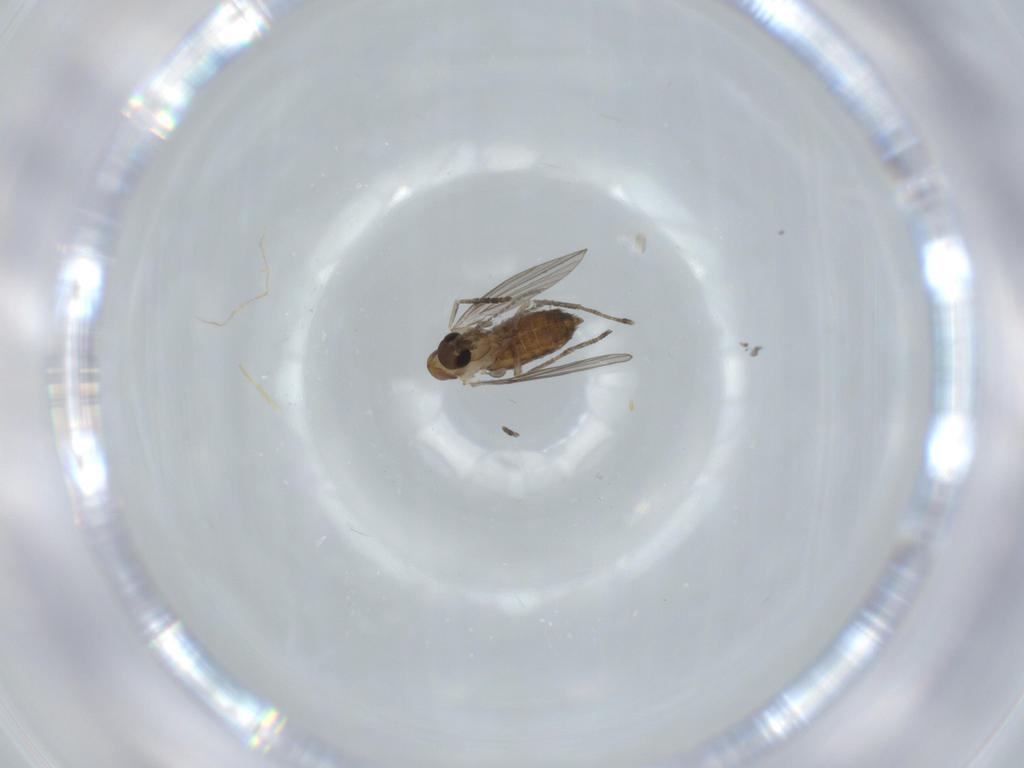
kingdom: Animalia
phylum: Arthropoda
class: Insecta
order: Diptera
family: Psychodidae
